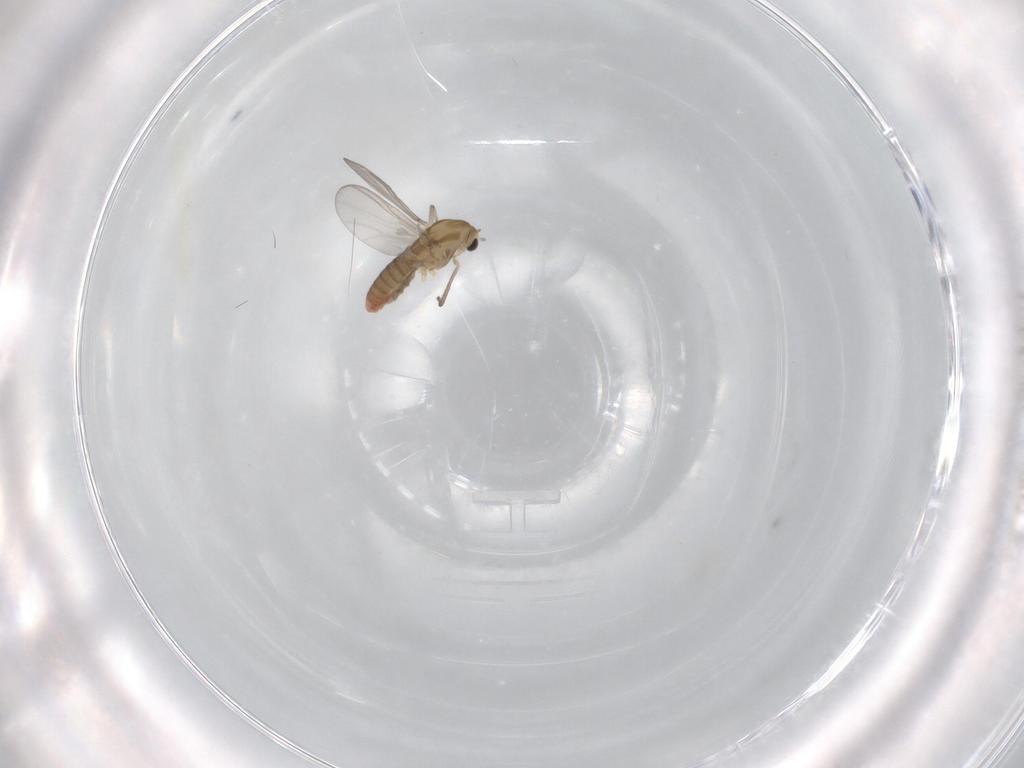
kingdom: Animalia
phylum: Arthropoda
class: Insecta
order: Diptera
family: Chironomidae
